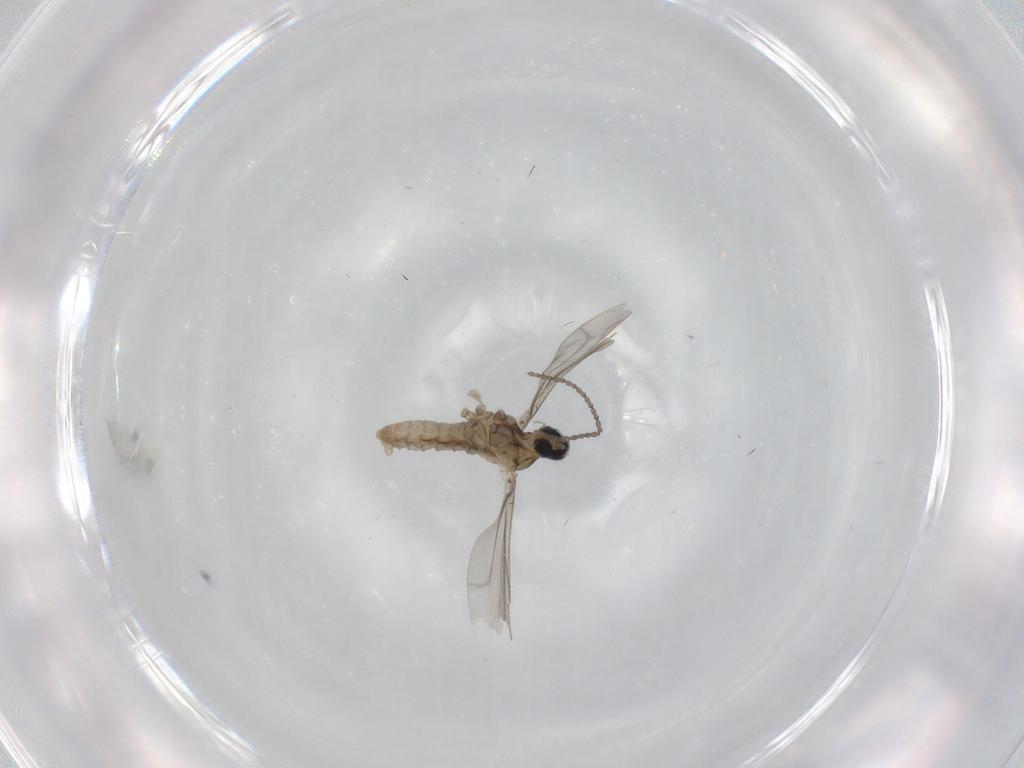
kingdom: Animalia
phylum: Arthropoda
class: Insecta
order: Diptera
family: Cecidomyiidae
